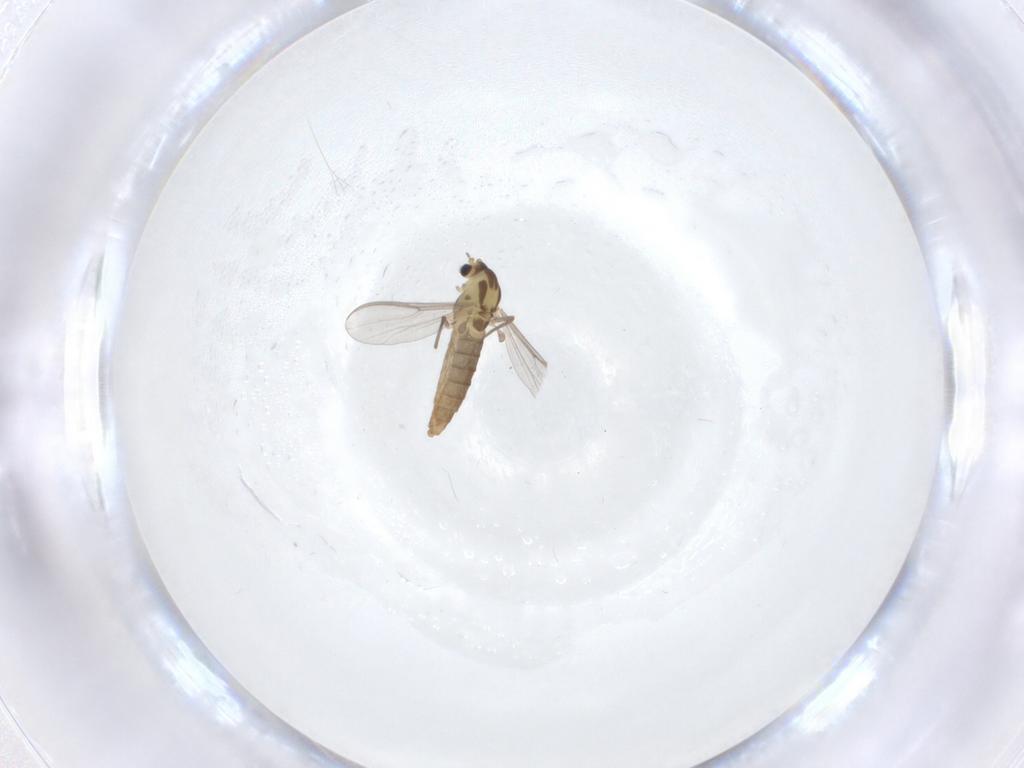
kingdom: Animalia
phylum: Arthropoda
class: Insecta
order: Diptera
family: Chironomidae
